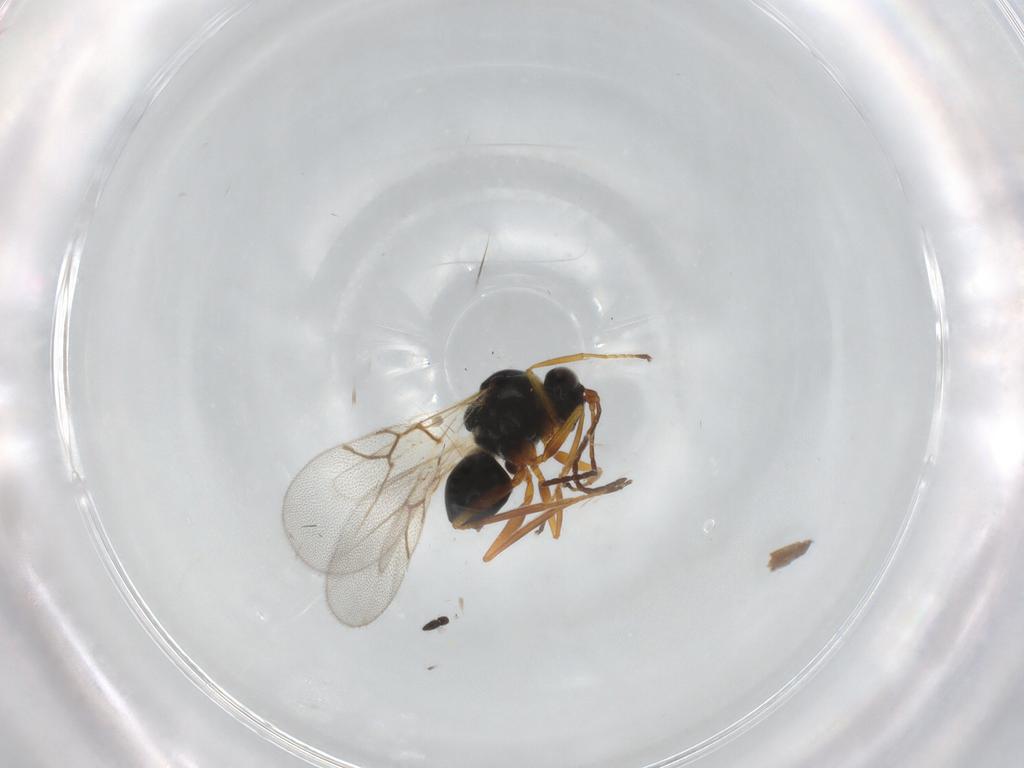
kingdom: Animalia
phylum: Arthropoda
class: Insecta
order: Hymenoptera
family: Figitidae
